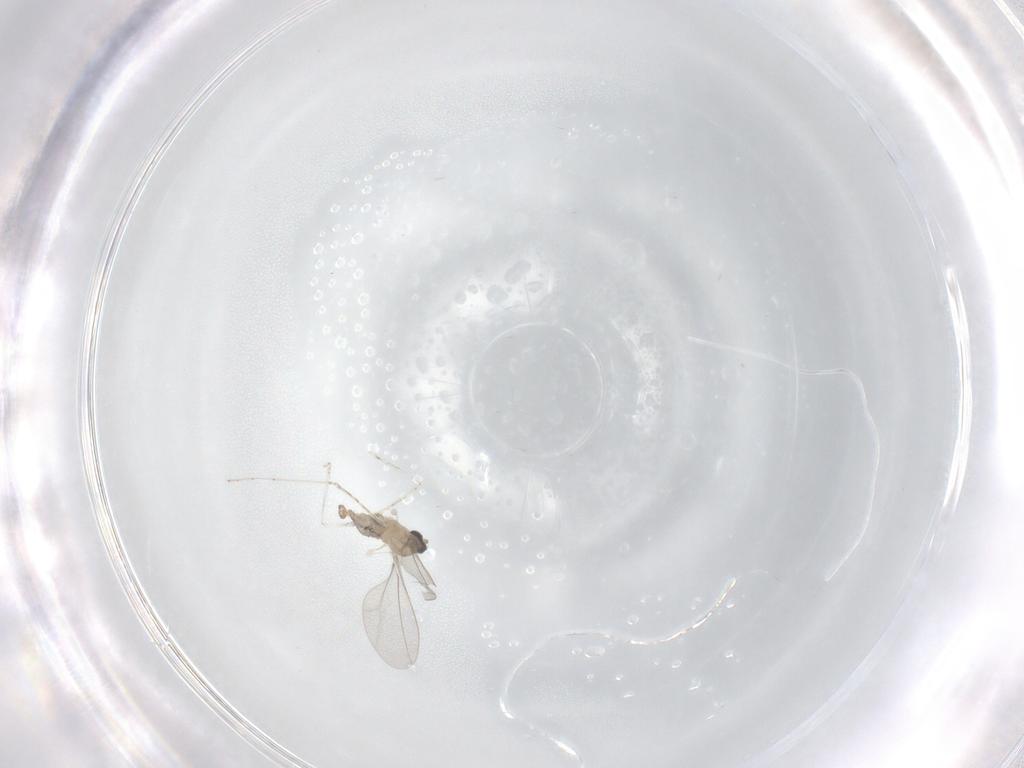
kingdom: Animalia
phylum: Arthropoda
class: Insecta
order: Diptera
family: Cecidomyiidae
